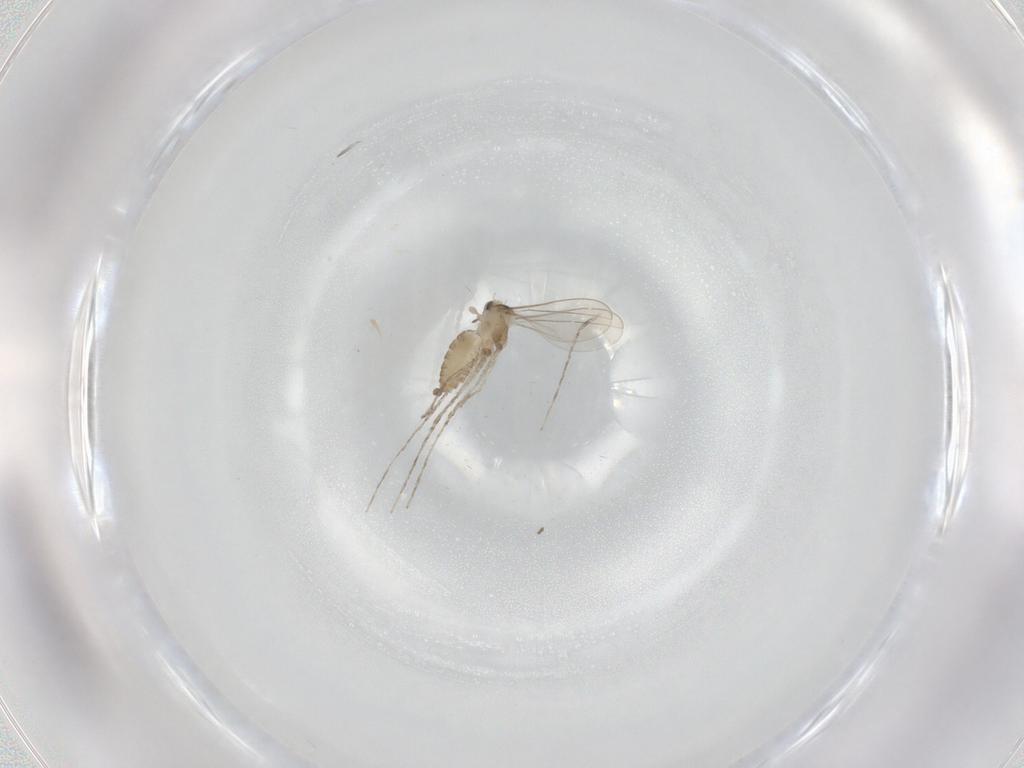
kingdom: Animalia
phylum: Arthropoda
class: Insecta
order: Diptera
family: Cecidomyiidae
